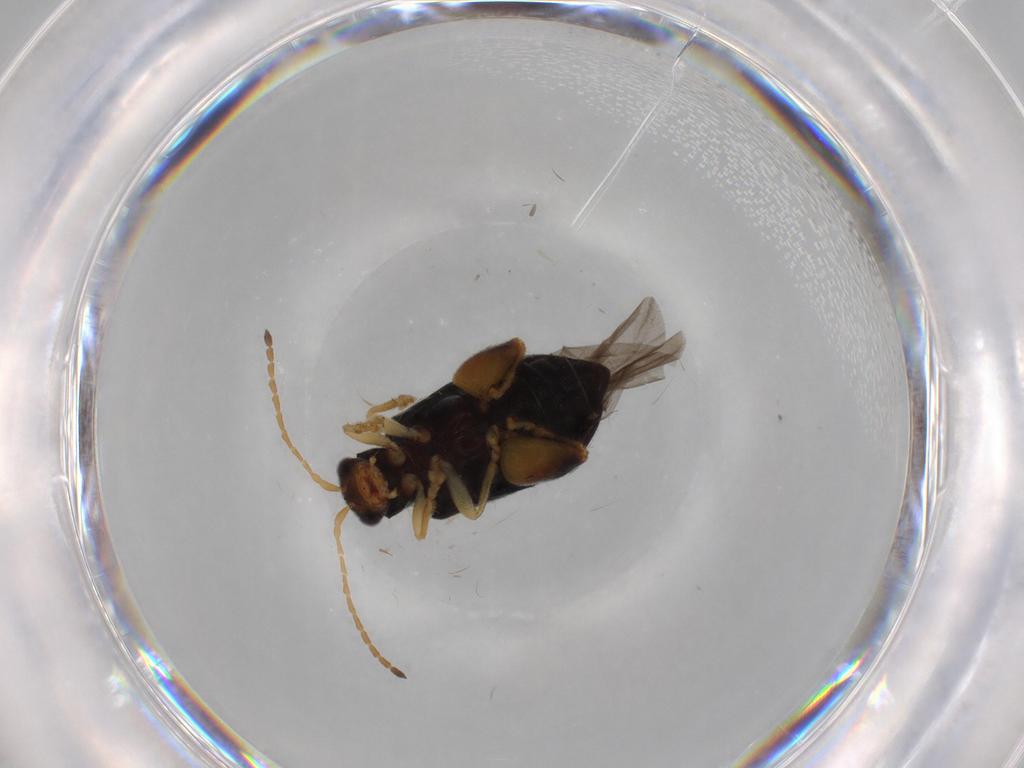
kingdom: Animalia
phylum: Arthropoda
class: Insecta
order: Coleoptera
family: Chrysomelidae
